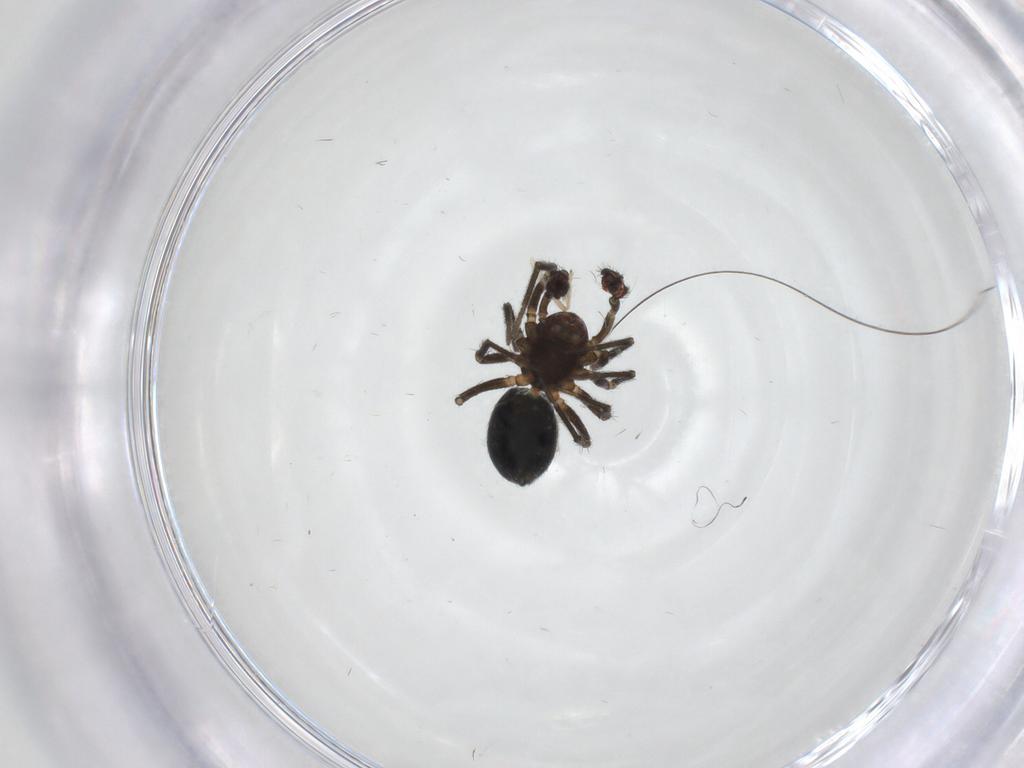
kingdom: Animalia
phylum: Arthropoda
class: Arachnida
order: Araneae
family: Linyphiidae
